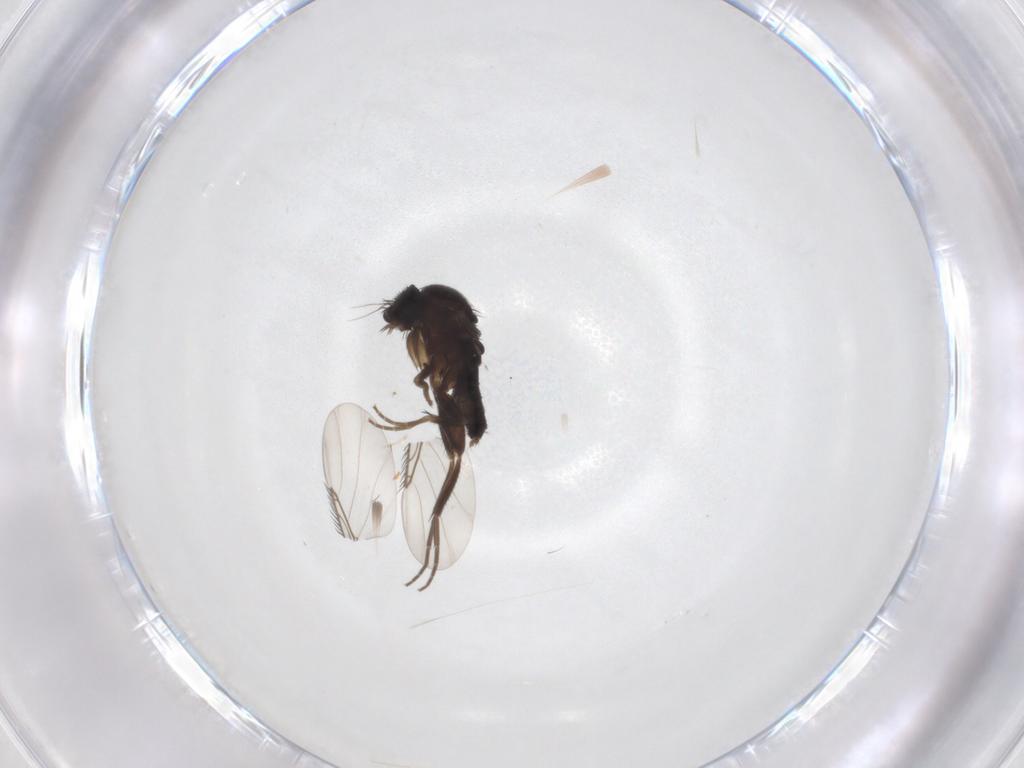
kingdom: Animalia
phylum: Arthropoda
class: Insecta
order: Diptera
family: Phoridae
